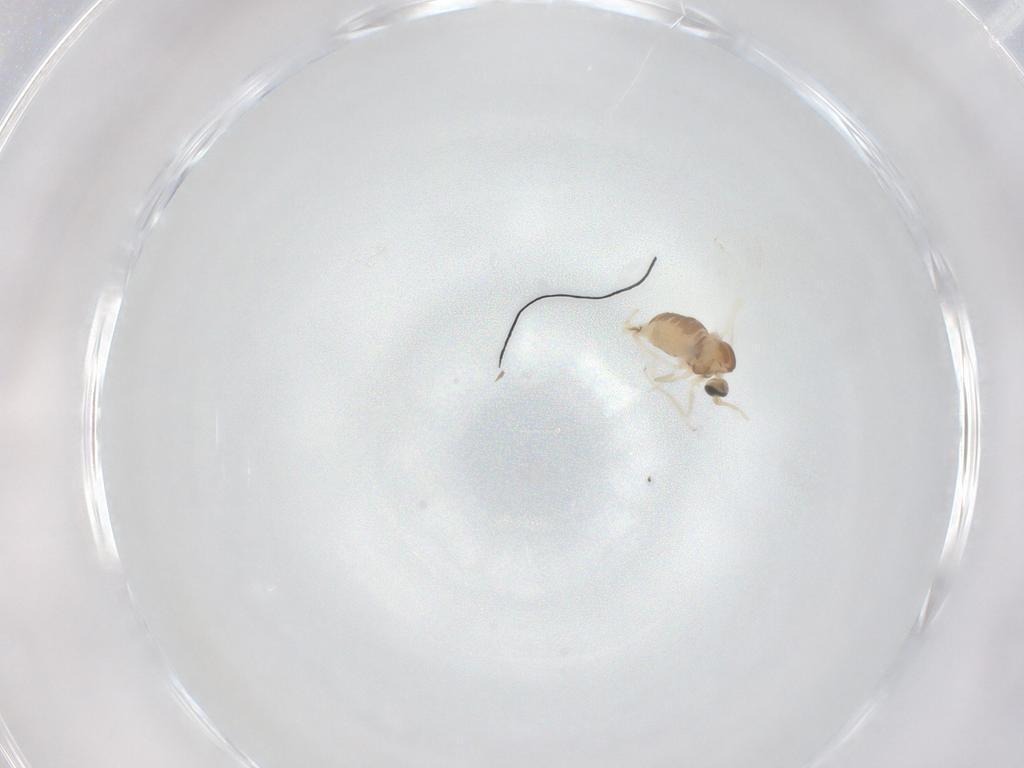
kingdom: Animalia
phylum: Arthropoda
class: Insecta
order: Diptera
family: Cecidomyiidae
